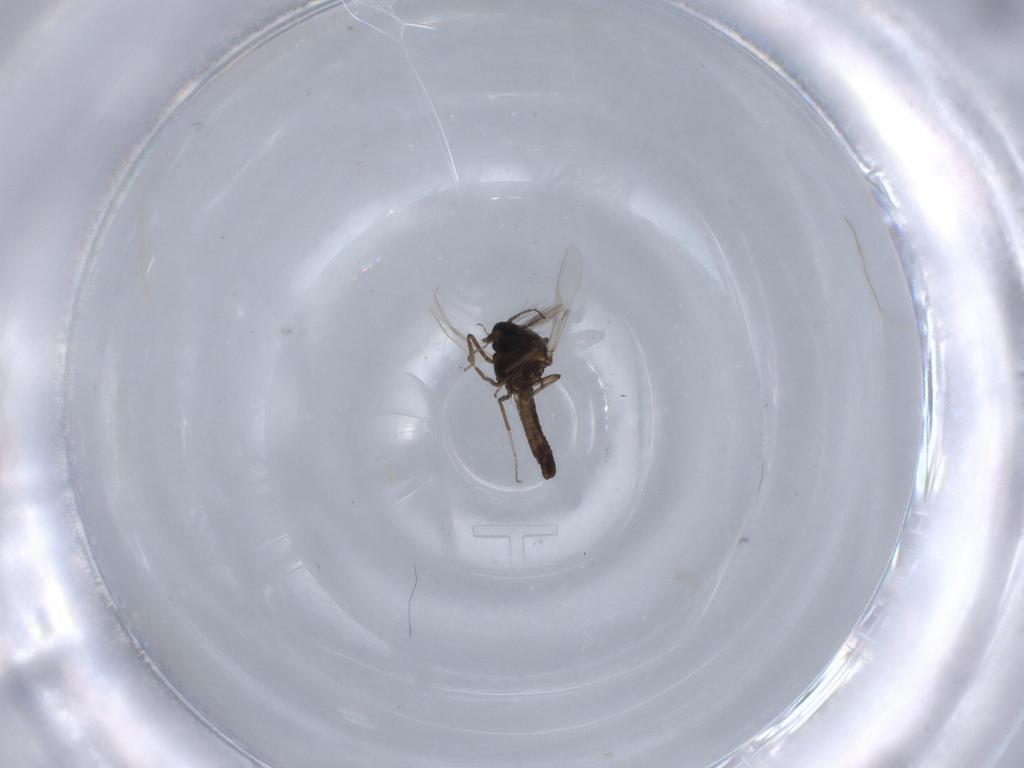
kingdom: Animalia
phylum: Arthropoda
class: Insecta
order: Diptera
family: Ceratopogonidae
